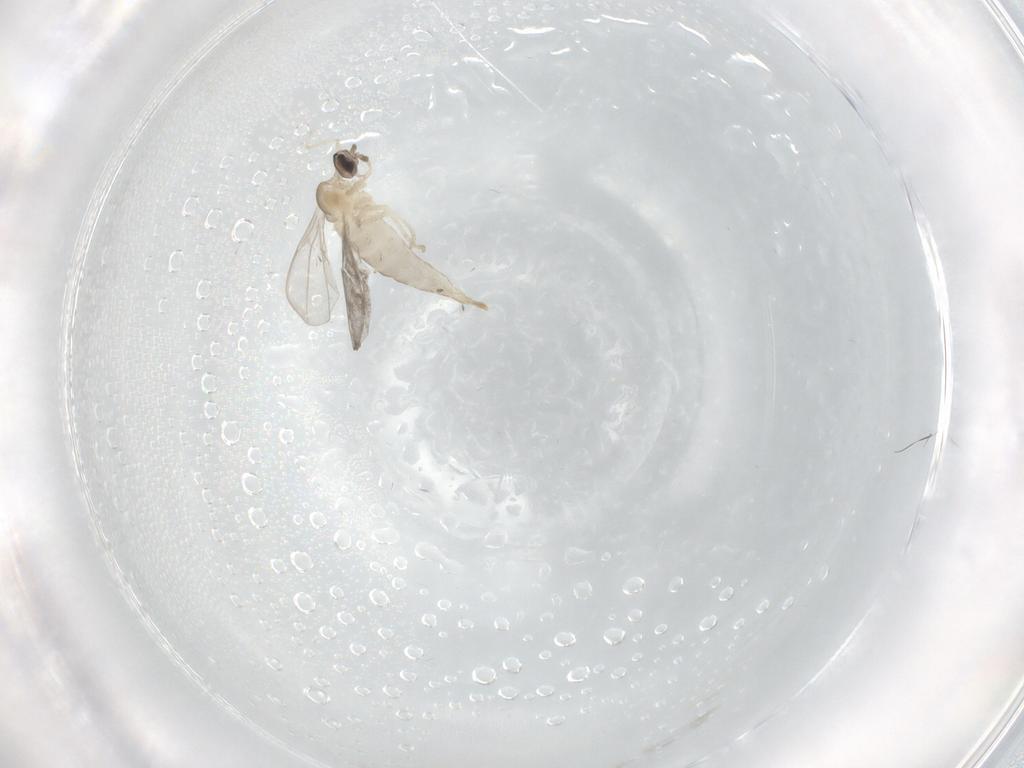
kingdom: Animalia
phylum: Arthropoda
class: Insecta
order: Diptera
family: Cecidomyiidae
